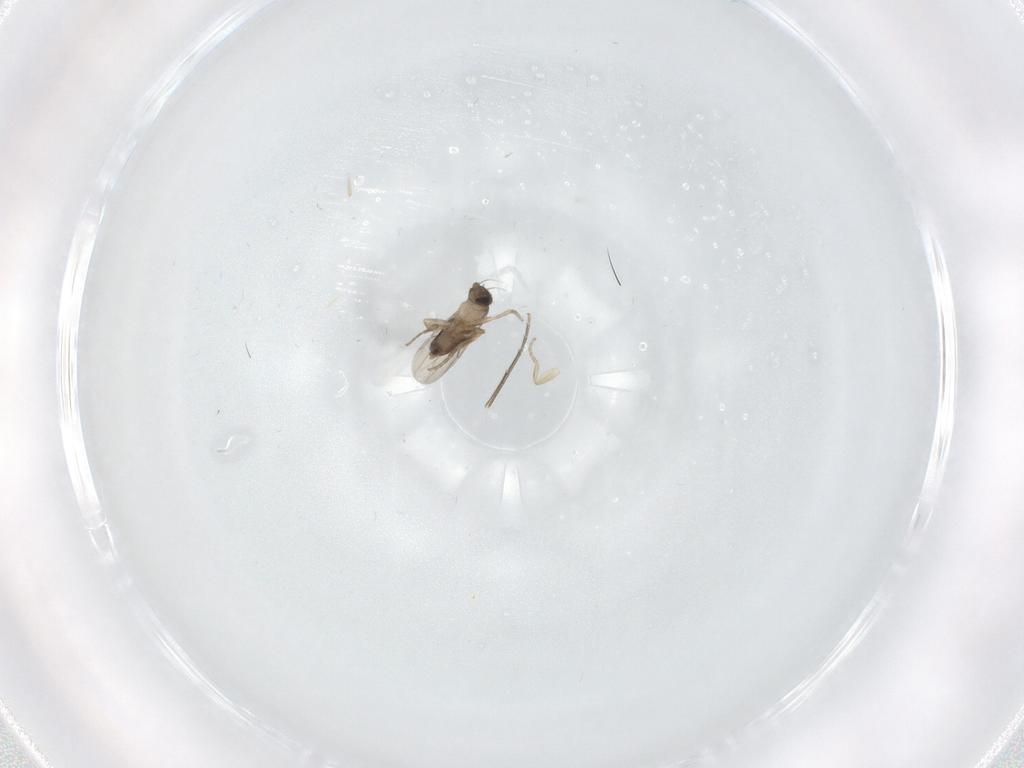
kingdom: Animalia
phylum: Arthropoda
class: Insecta
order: Diptera
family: Phoridae
